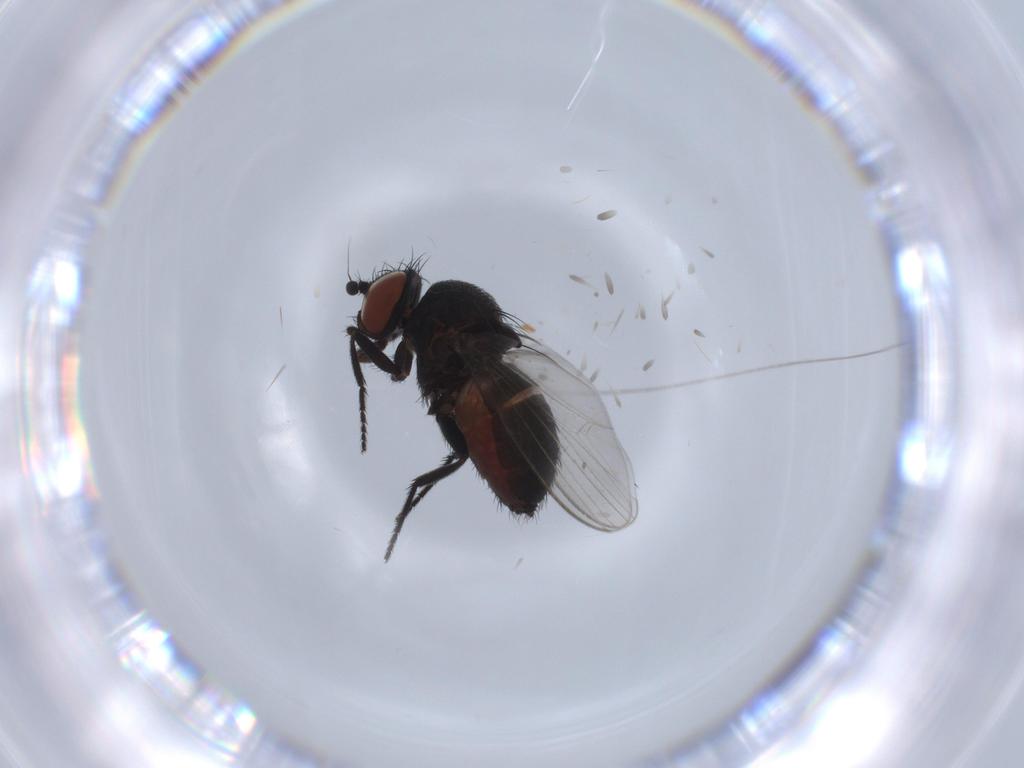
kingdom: Animalia
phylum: Arthropoda
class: Insecta
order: Diptera
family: Milichiidae
